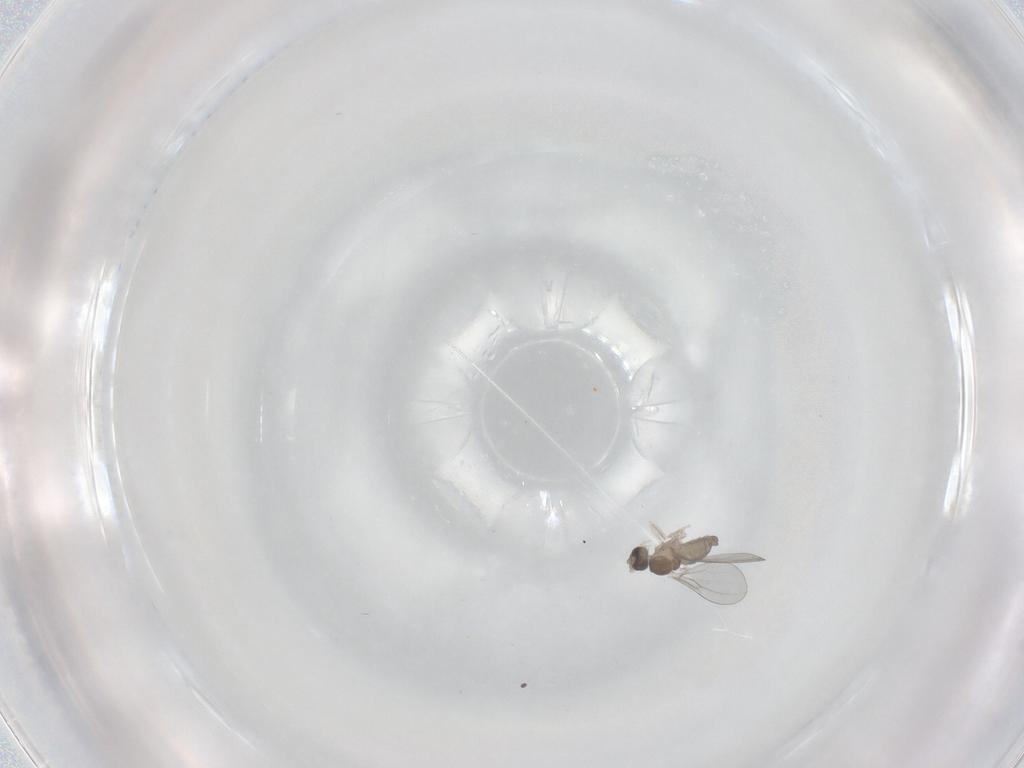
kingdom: Animalia
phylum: Arthropoda
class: Insecta
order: Diptera
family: Cecidomyiidae
